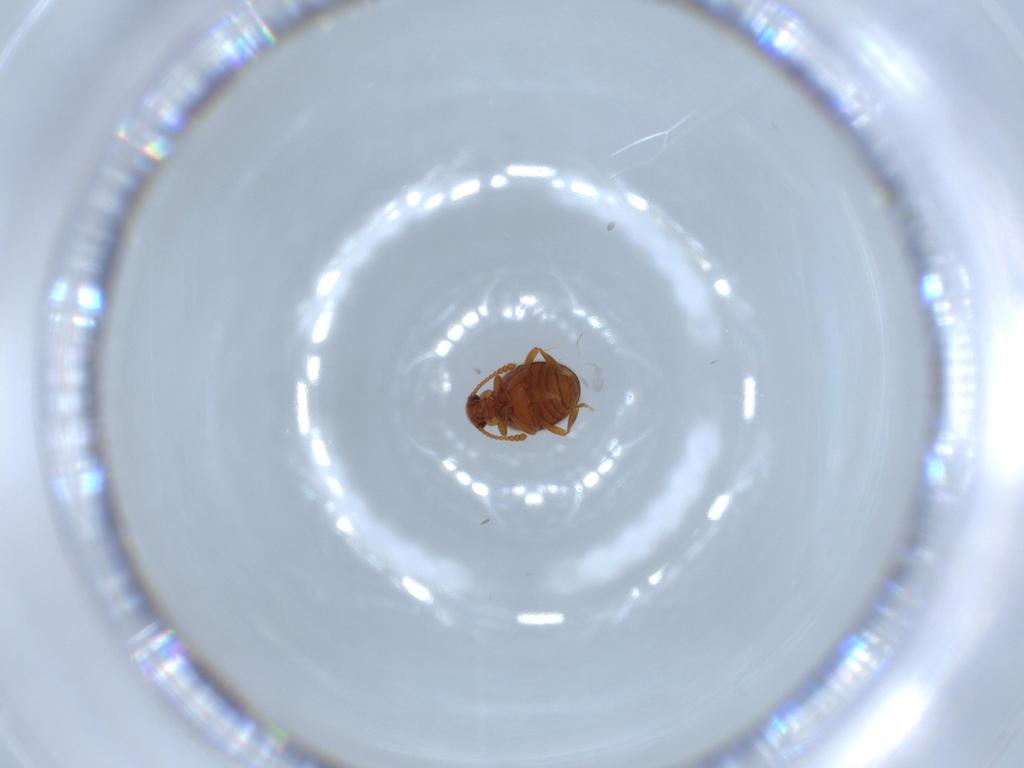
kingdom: Animalia
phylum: Arthropoda
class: Insecta
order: Coleoptera
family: Aderidae
